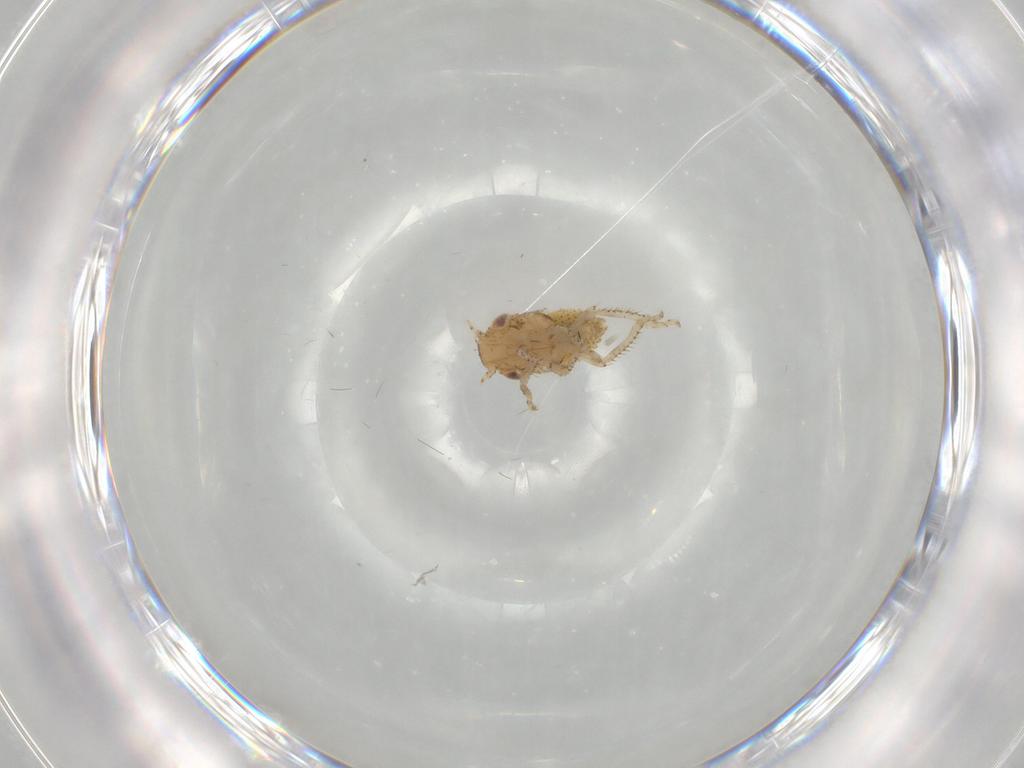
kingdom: Animalia
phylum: Arthropoda
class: Insecta
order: Hemiptera
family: Cicadellidae
